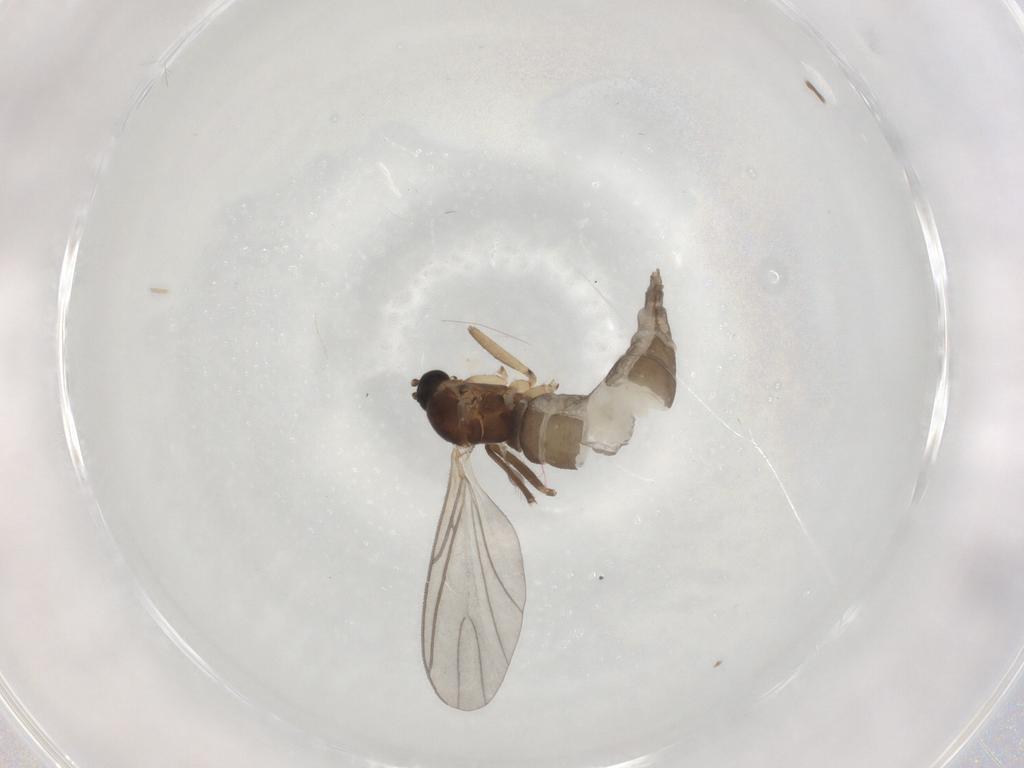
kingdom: Animalia
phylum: Arthropoda
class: Insecta
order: Diptera
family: Sciaridae
